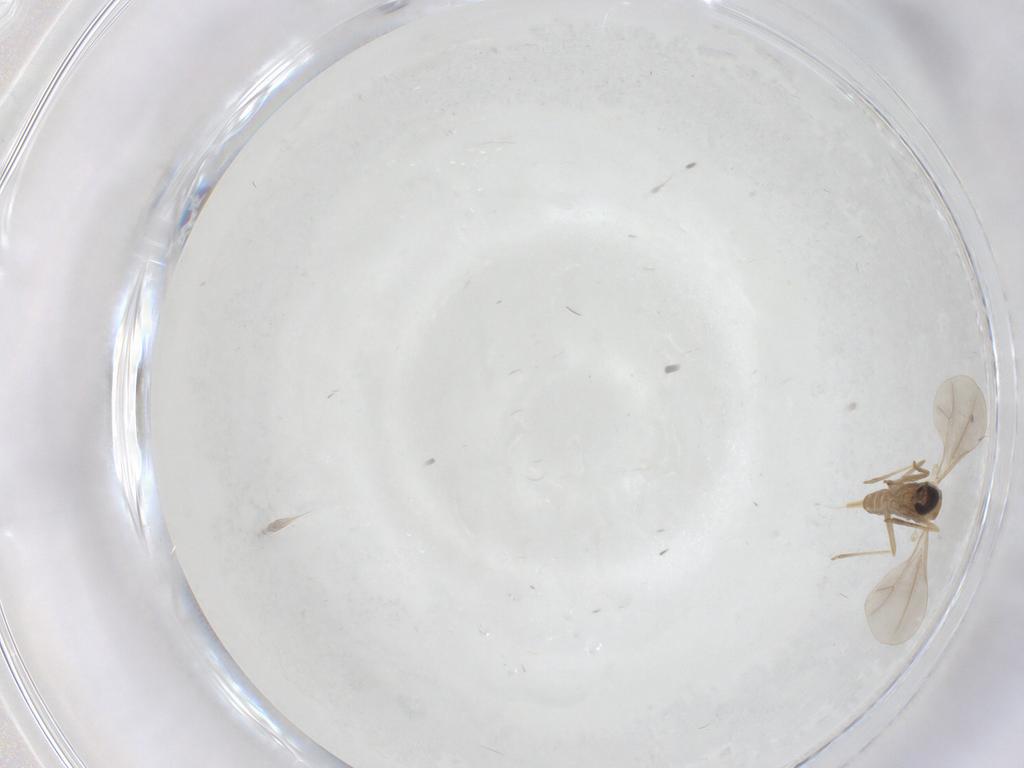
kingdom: Animalia
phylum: Arthropoda
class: Insecta
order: Diptera
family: Cecidomyiidae
